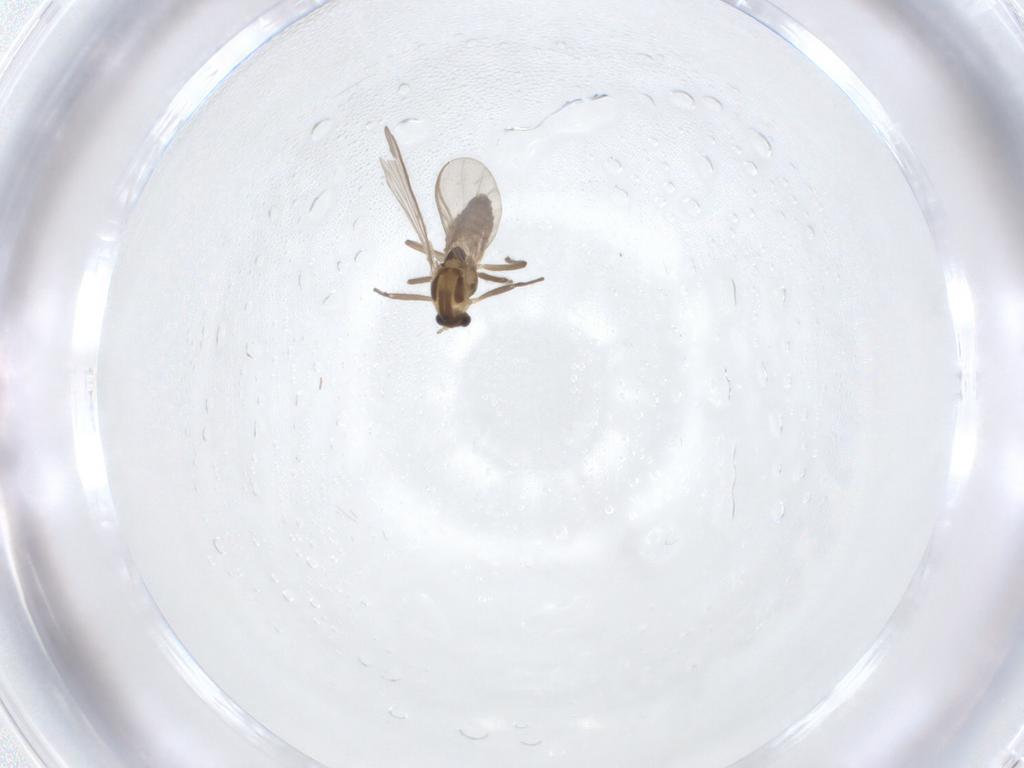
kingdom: Animalia
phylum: Arthropoda
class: Insecta
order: Diptera
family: Chironomidae
